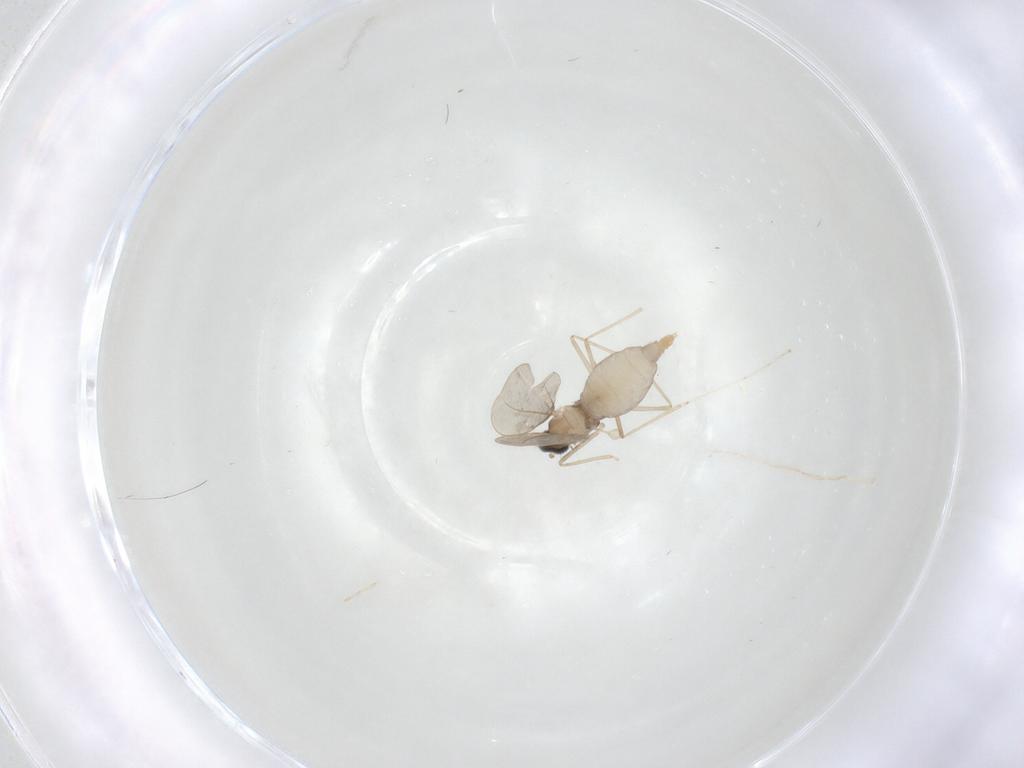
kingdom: Animalia
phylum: Arthropoda
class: Insecta
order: Diptera
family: Cecidomyiidae
